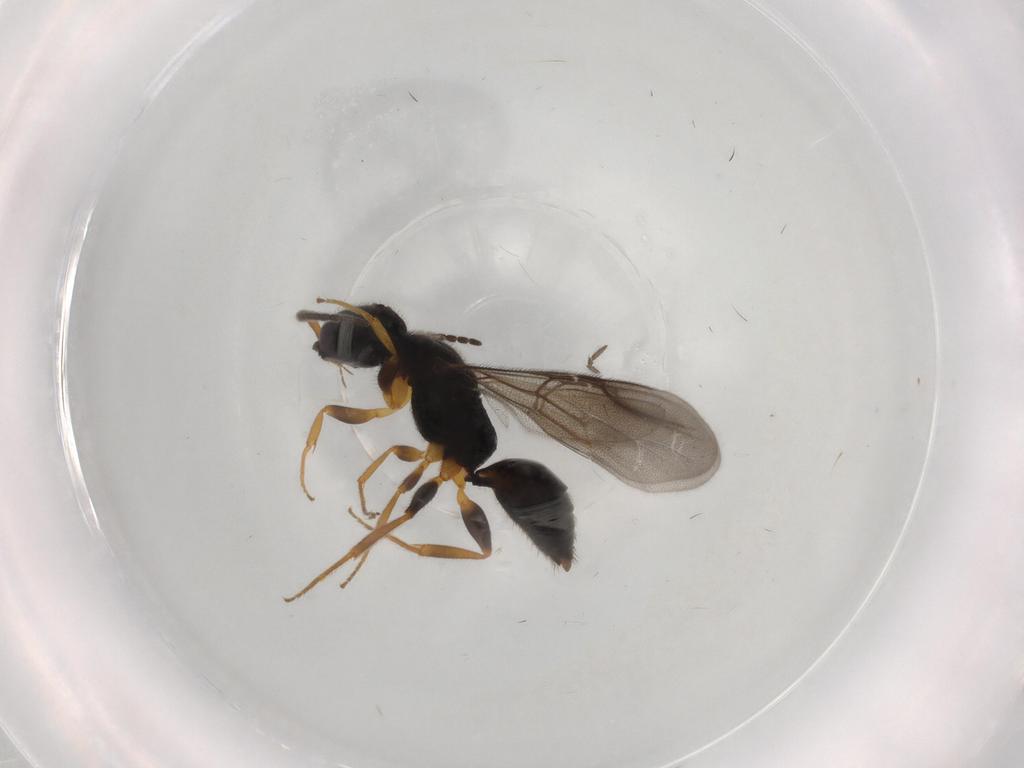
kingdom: Animalia
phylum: Arthropoda
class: Insecta
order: Hymenoptera
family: Bethylidae
